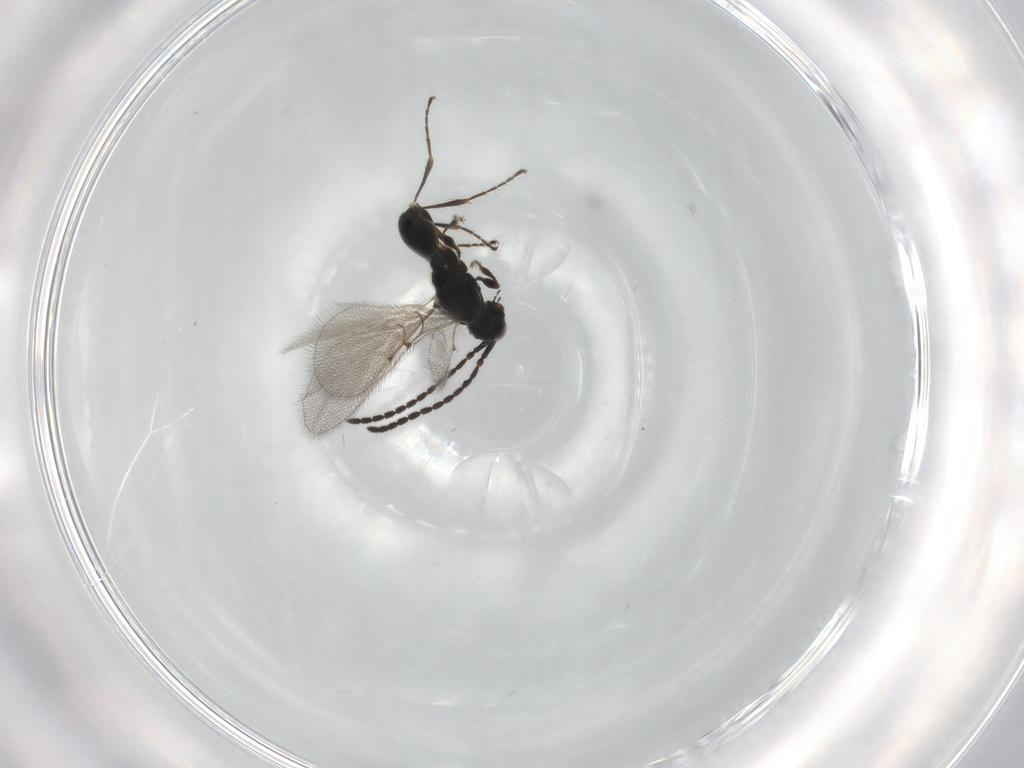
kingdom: Animalia
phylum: Arthropoda
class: Insecta
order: Hymenoptera
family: Diapriidae
